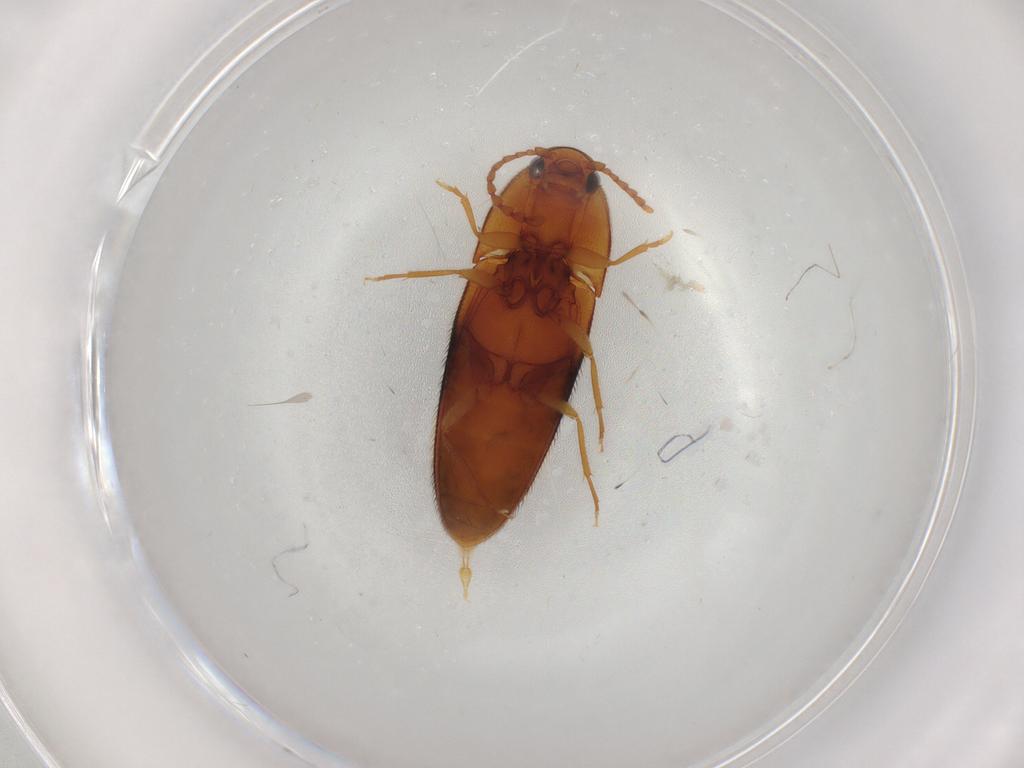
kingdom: Animalia
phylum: Arthropoda
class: Insecta
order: Coleoptera
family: Elateridae
